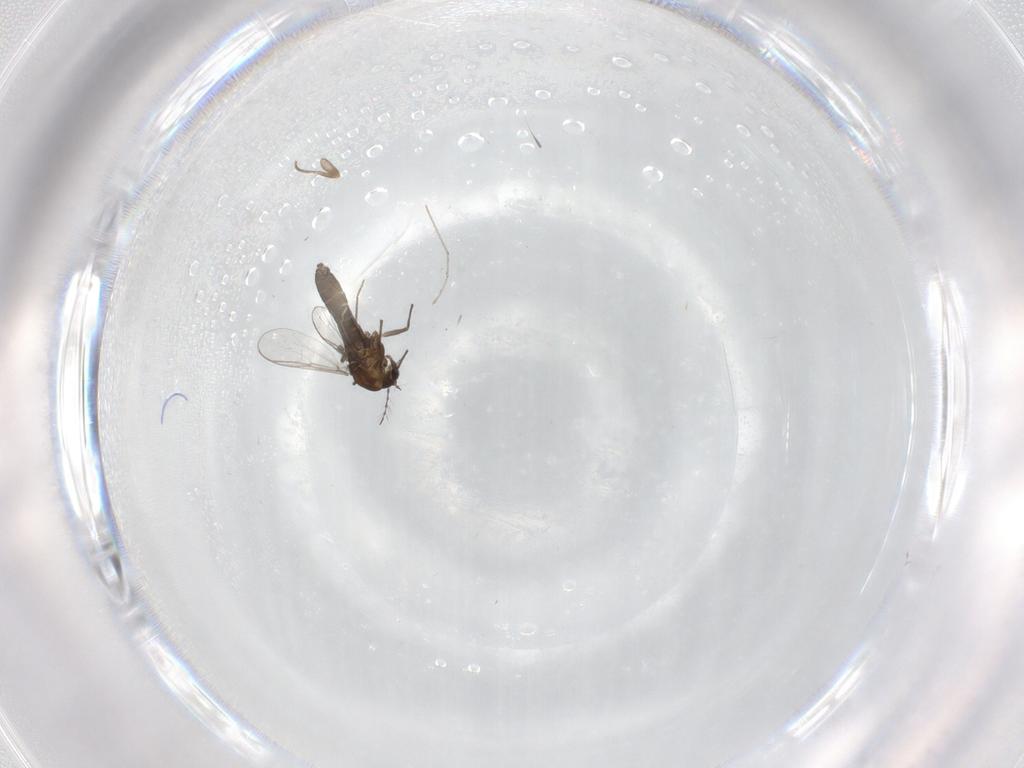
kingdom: Animalia
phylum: Arthropoda
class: Insecta
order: Diptera
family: Chironomidae
